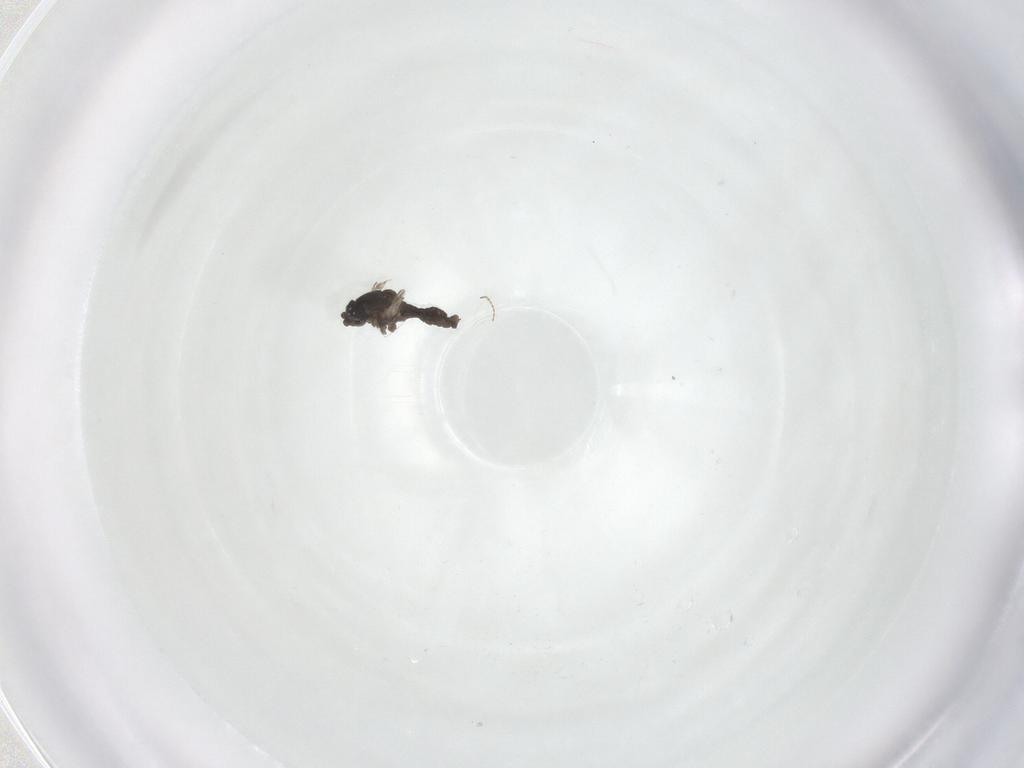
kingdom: Animalia
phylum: Arthropoda
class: Insecta
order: Diptera
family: Cecidomyiidae
